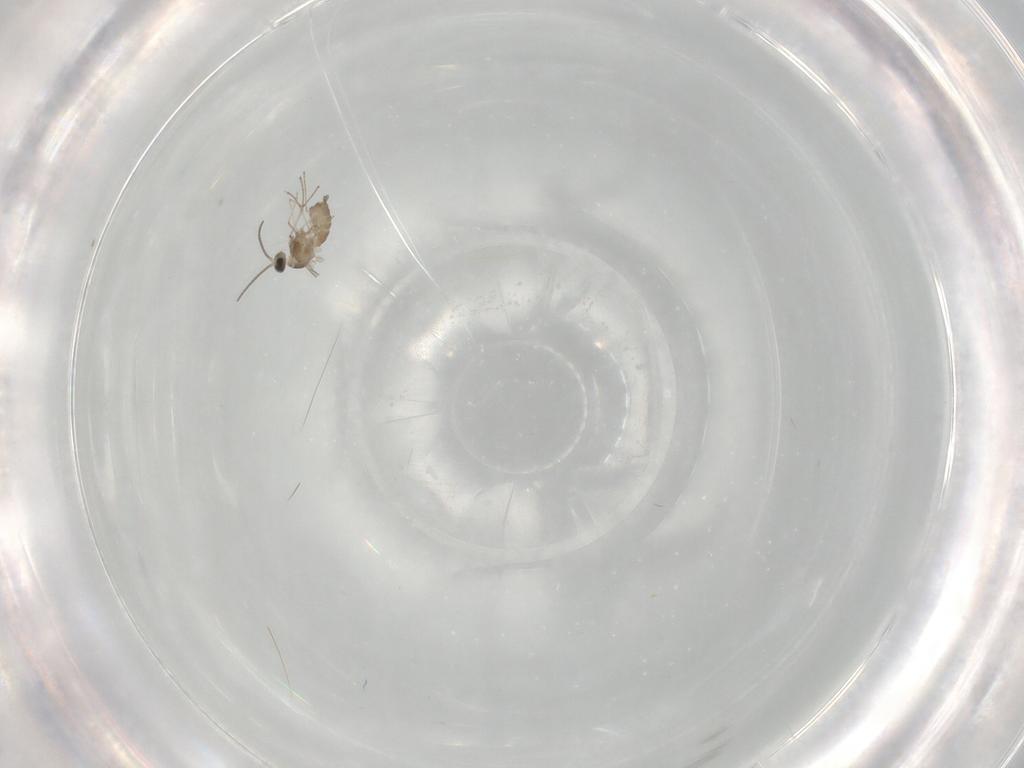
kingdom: Animalia
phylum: Arthropoda
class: Insecta
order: Diptera
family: Cecidomyiidae
